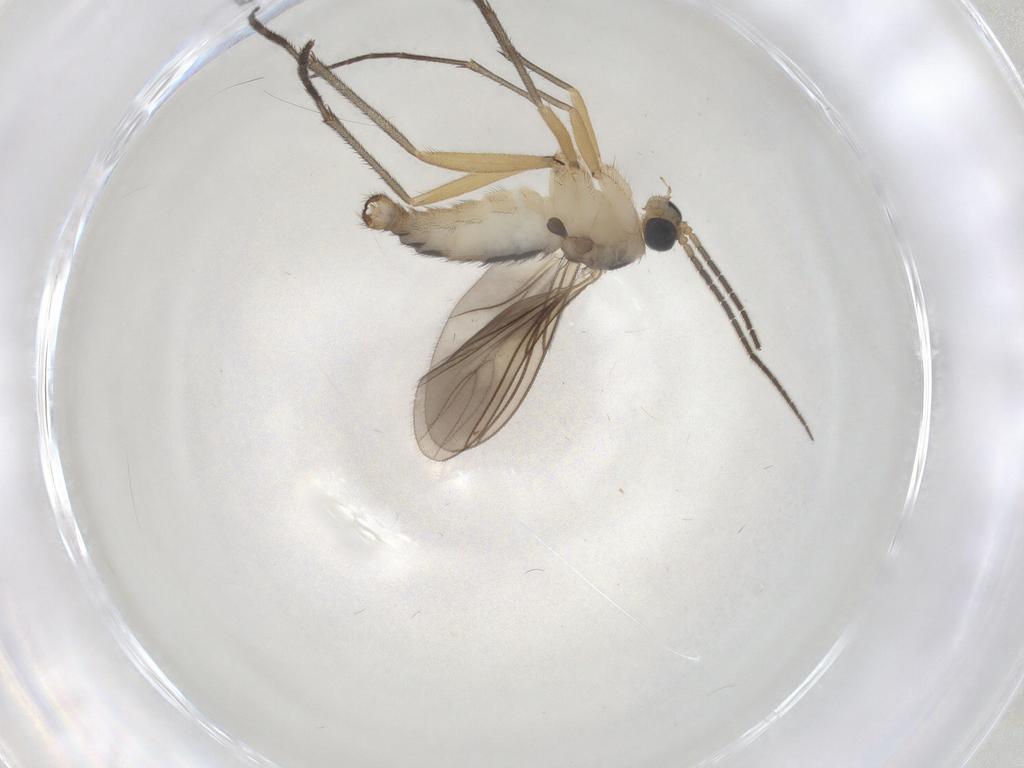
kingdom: Animalia
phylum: Arthropoda
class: Insecta
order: Diptera
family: Sciaridae
